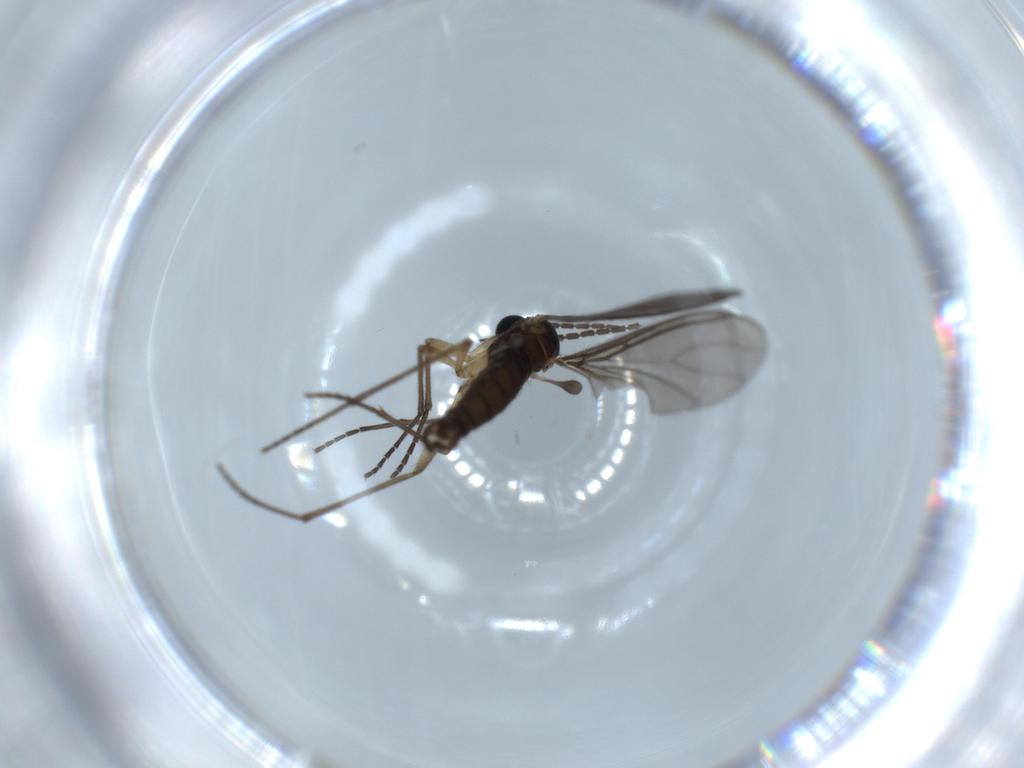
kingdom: Animalia
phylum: Arthropoda
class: Insecta
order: Diptera
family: Sciaridae
